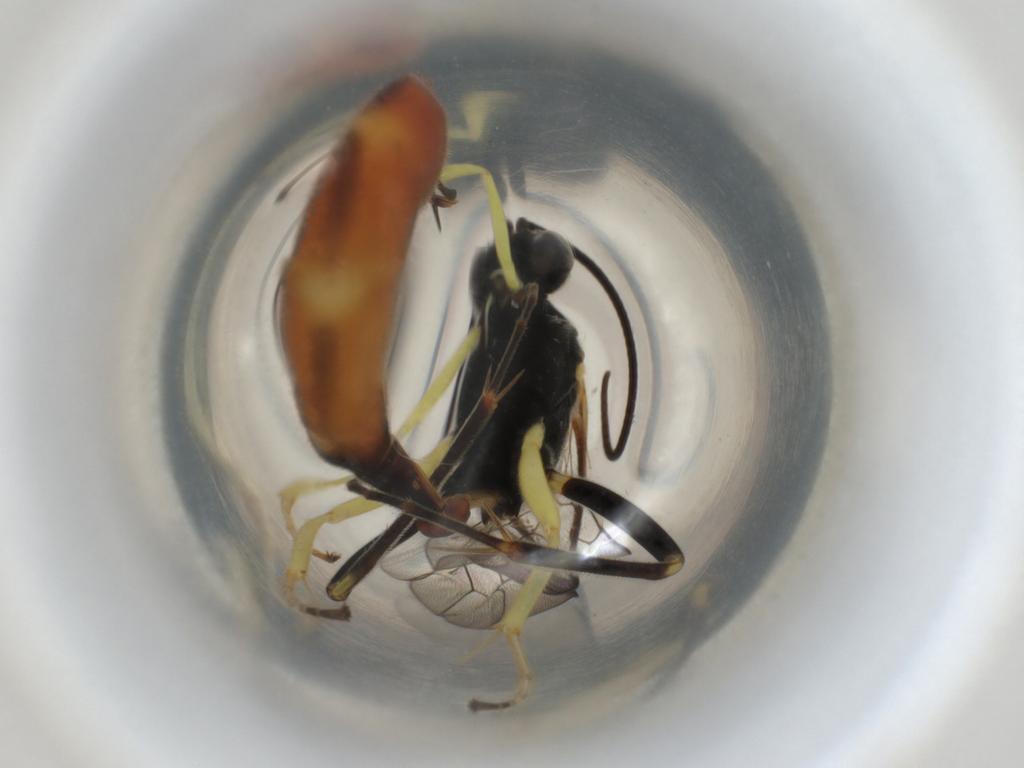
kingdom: Animalia
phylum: Arthropoda
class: Insecta
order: Hymenoptera
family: Ichneumonidae
